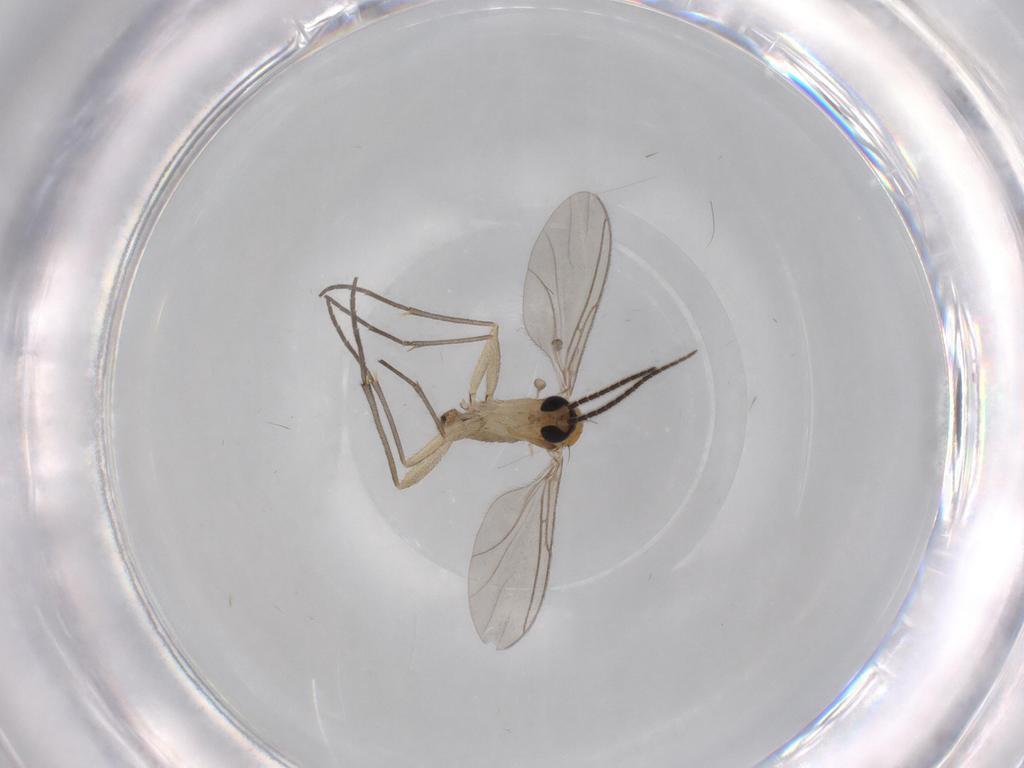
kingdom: Animalia
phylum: Arthropoda
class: Insecta
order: Diptera
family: Sciaridae
